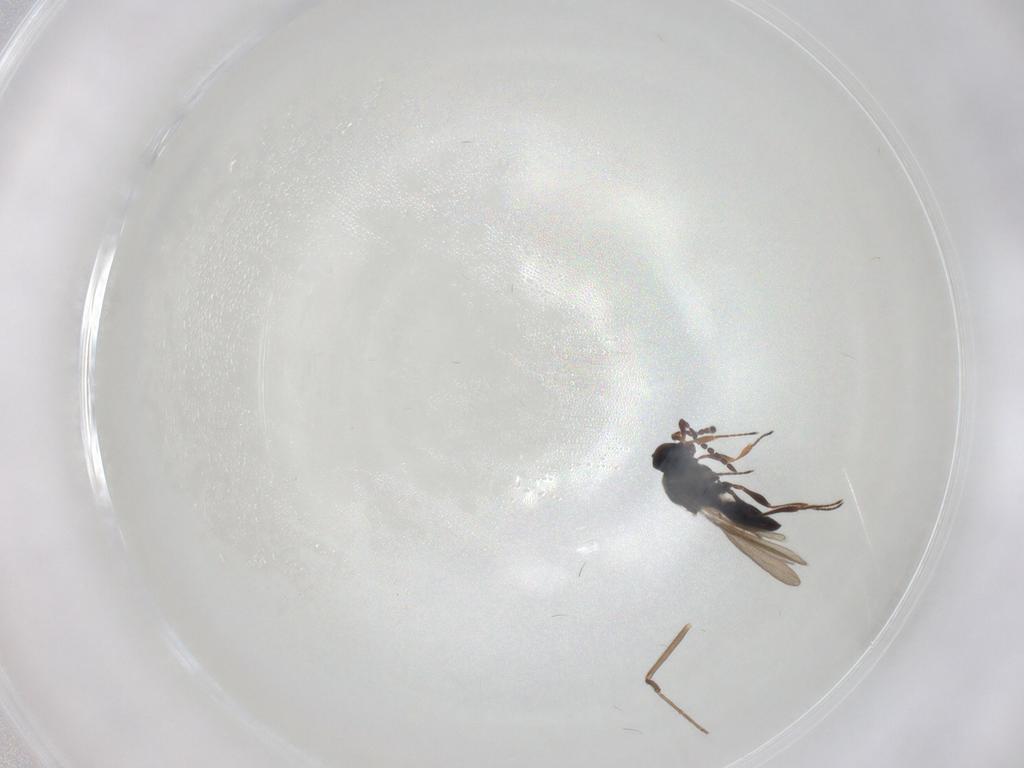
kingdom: Animalia
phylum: Arthropoda
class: Insecta
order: Hymenoptera
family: Platygastridae
